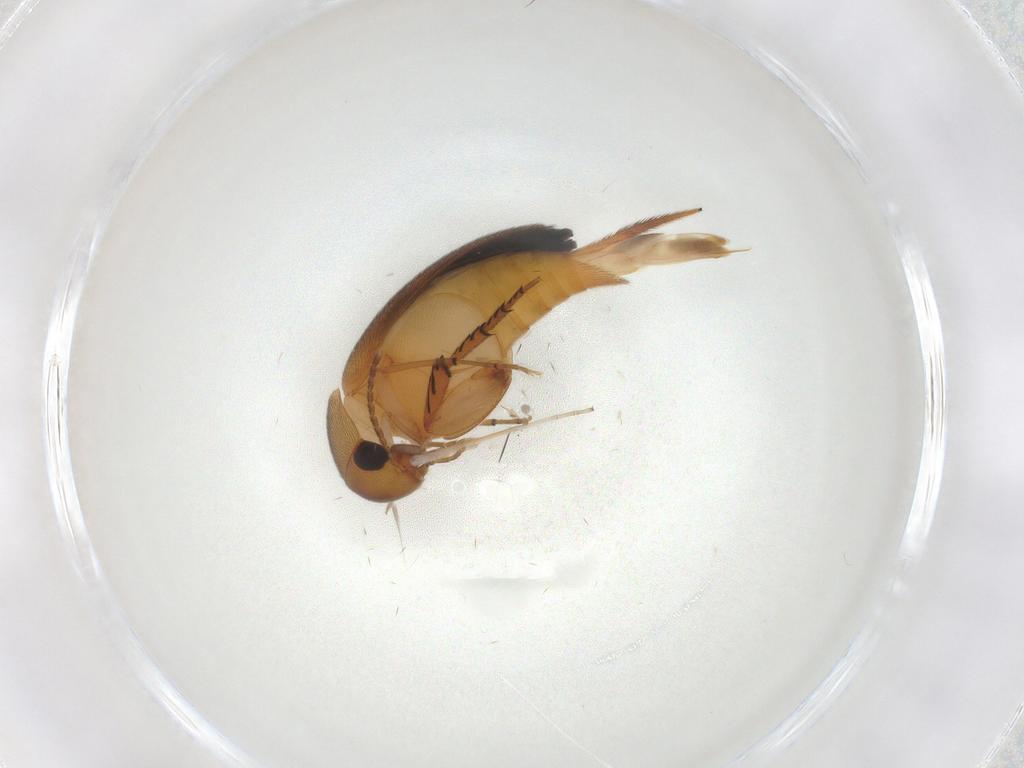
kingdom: Animalia
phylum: Arthropoda
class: Insecta
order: Coleoptera
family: Mordellidae
